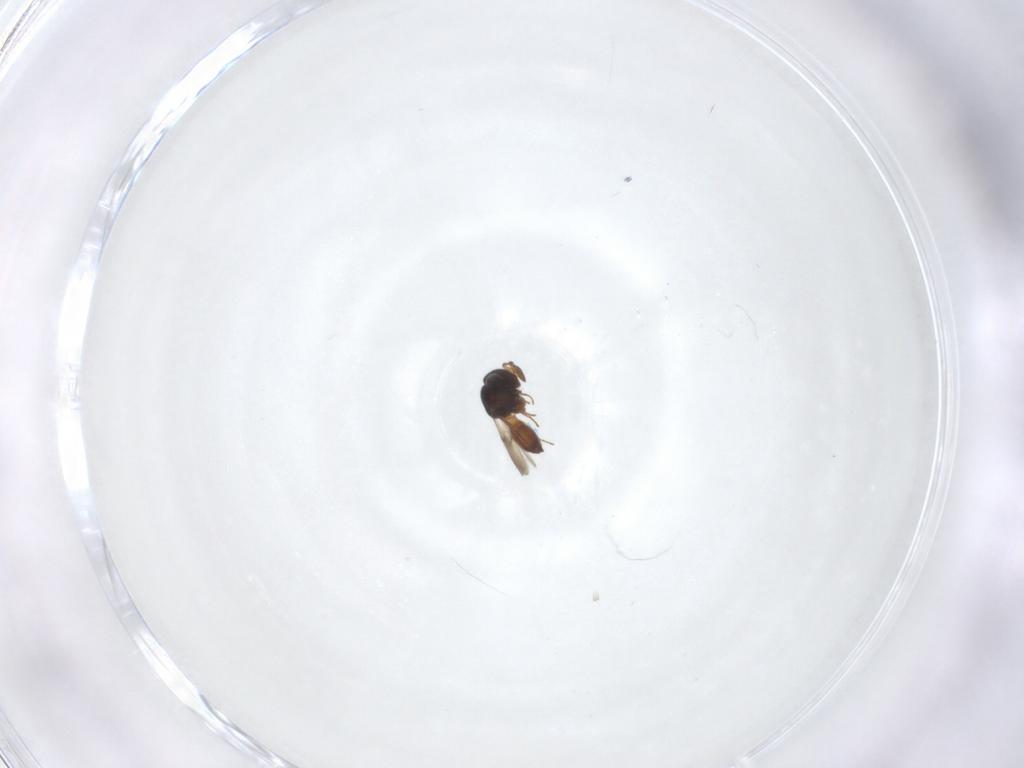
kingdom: Animalia
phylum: Arthropoda
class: Insecta
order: Hymenoptera
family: Scelionidae
